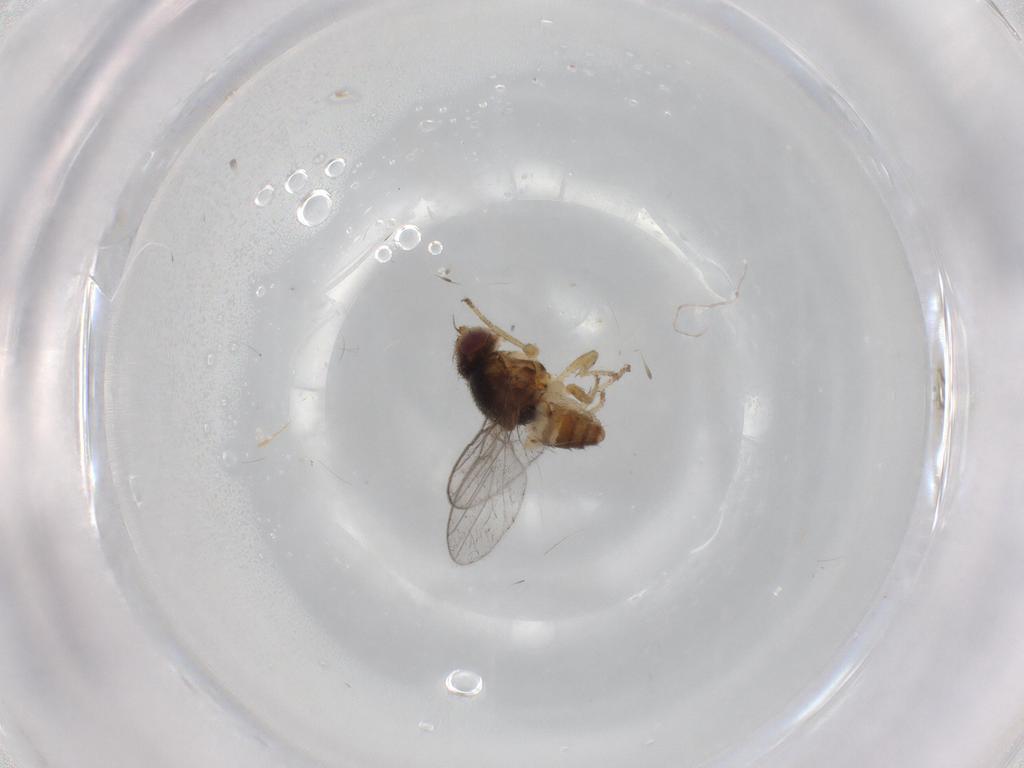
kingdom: Animalia
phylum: Arthropoda
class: Insecta
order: Diptera
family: Chloropidae
